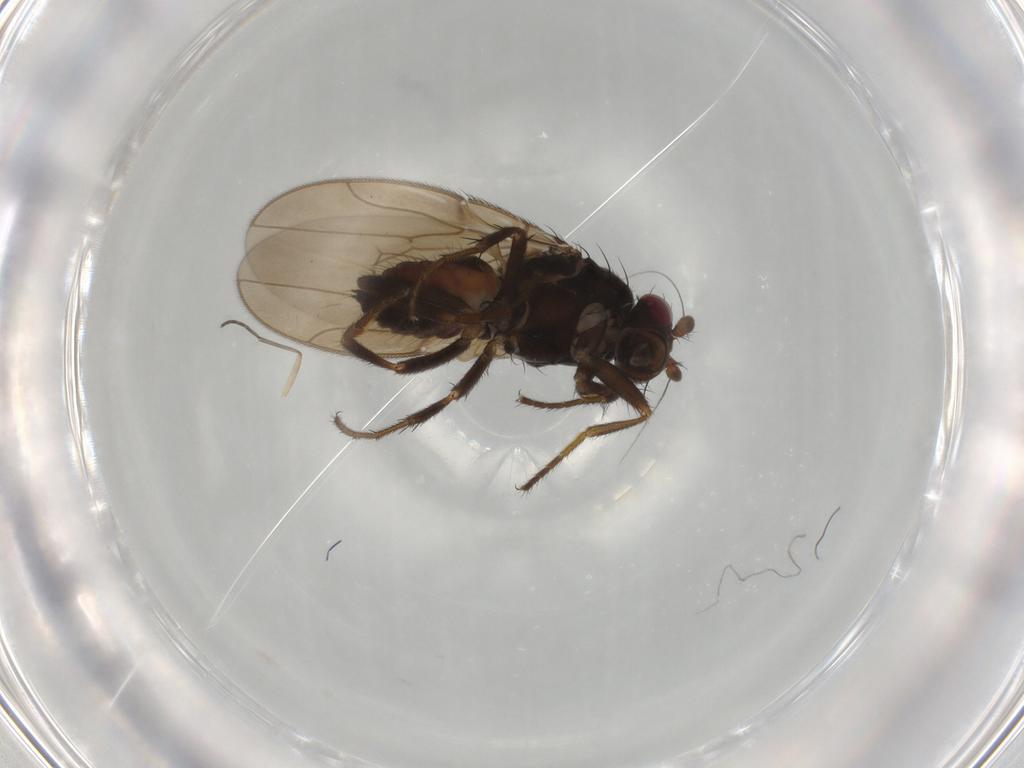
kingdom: Animalia
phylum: Arthropoda
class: Insecta
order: Diptera
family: Sphaeroceridae
